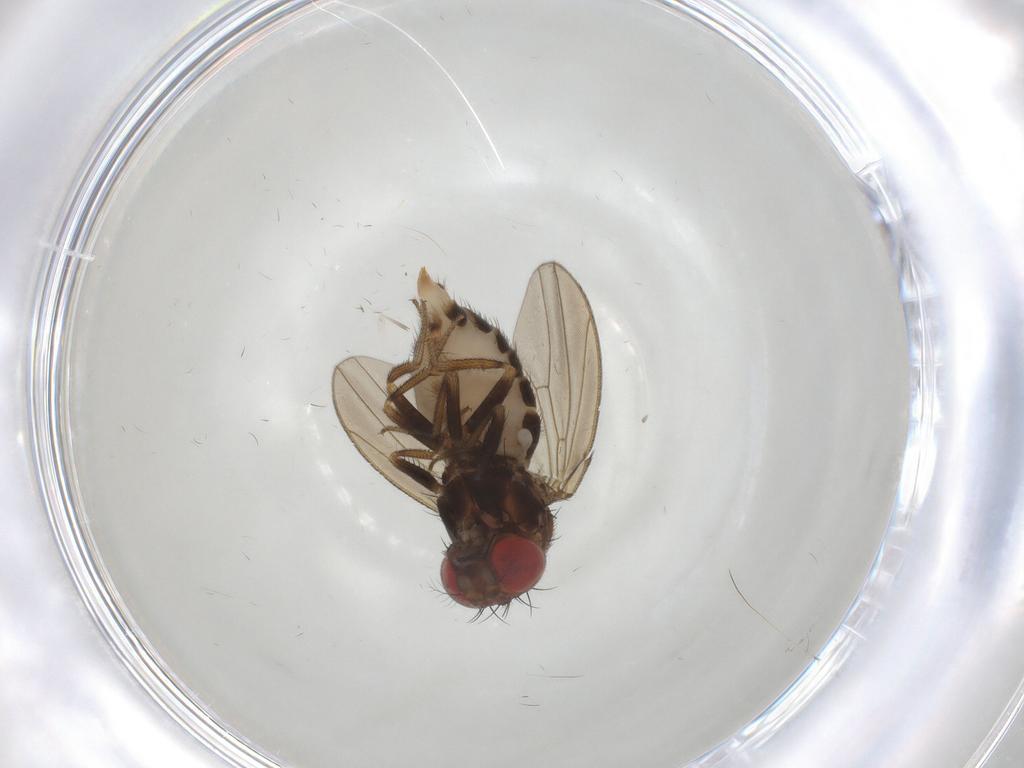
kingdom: Animalia
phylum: Arthropoda
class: Insecta
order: Diptera
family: Drosophilidae
